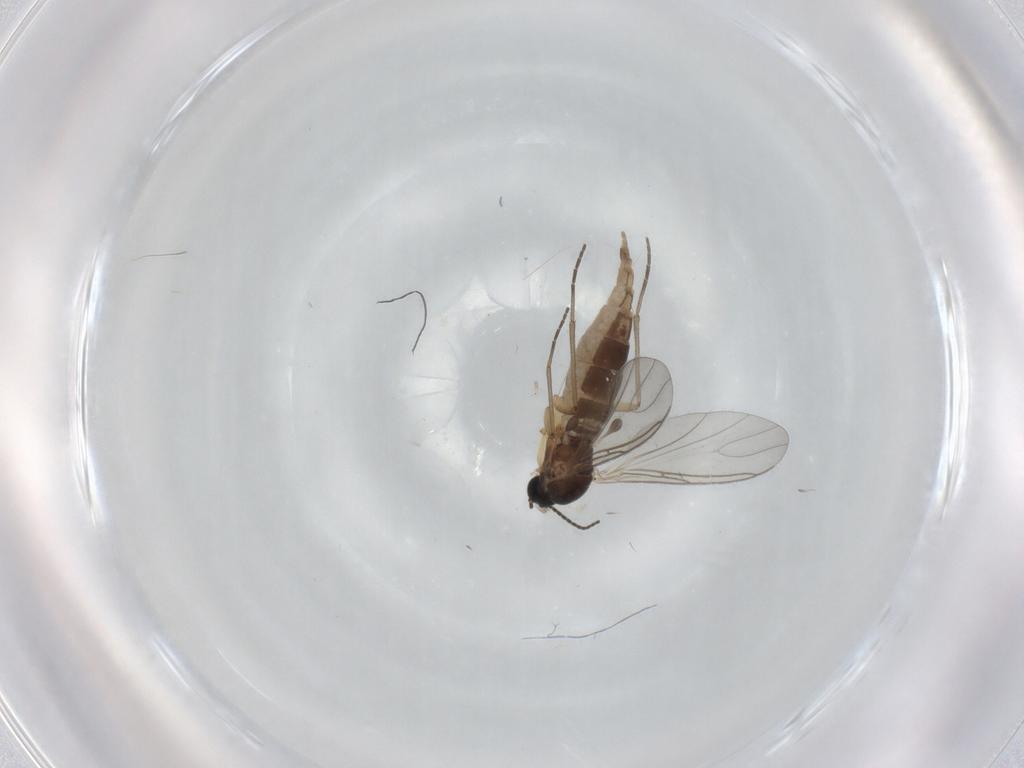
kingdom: Animalia
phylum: Arthropoda
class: Insecta
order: Diptera
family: Sciaridae
